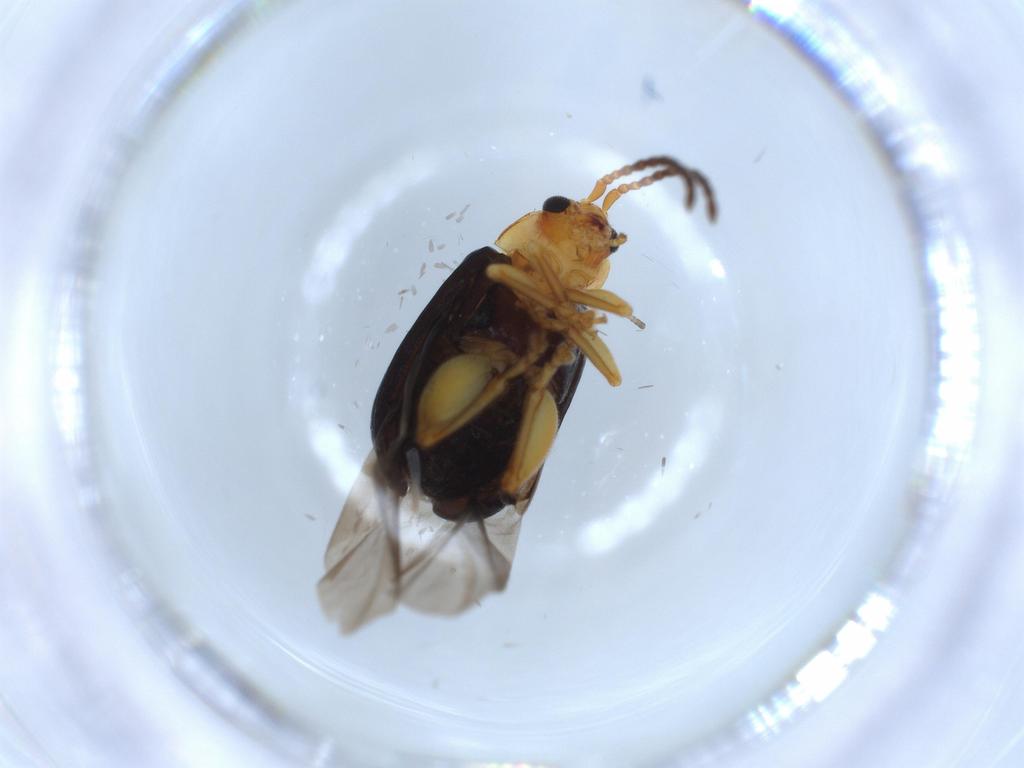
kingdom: Animalia
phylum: Arthropoda
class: Insecta
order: Coleoptera
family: Chrysomelidae
